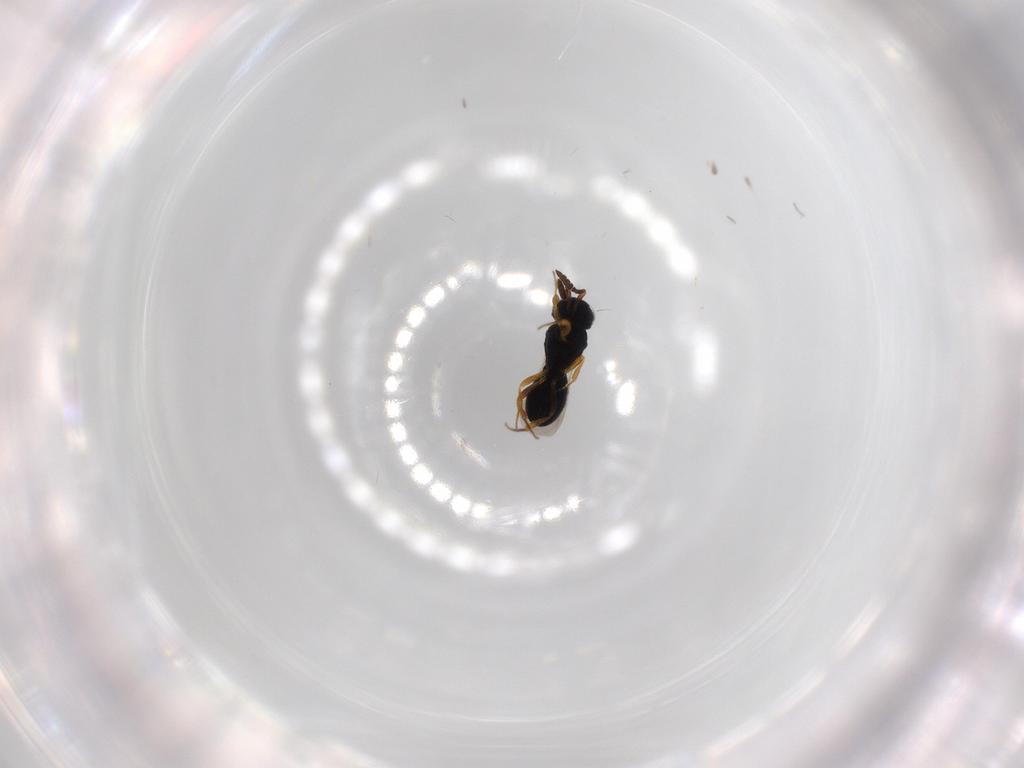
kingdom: Animalia
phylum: Arthropoda
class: Insecta
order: Hymenoptera
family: Scelionidae
